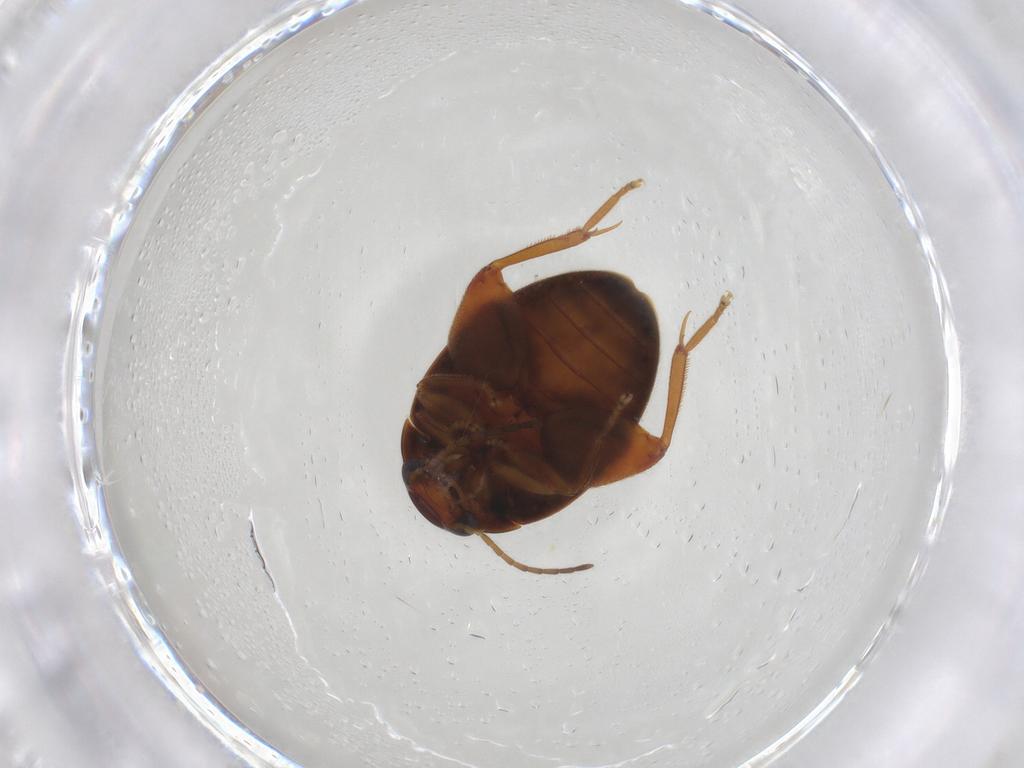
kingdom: Animalia
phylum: Arthropoda
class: Insecta
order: Coleoptera
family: Scirtidae
